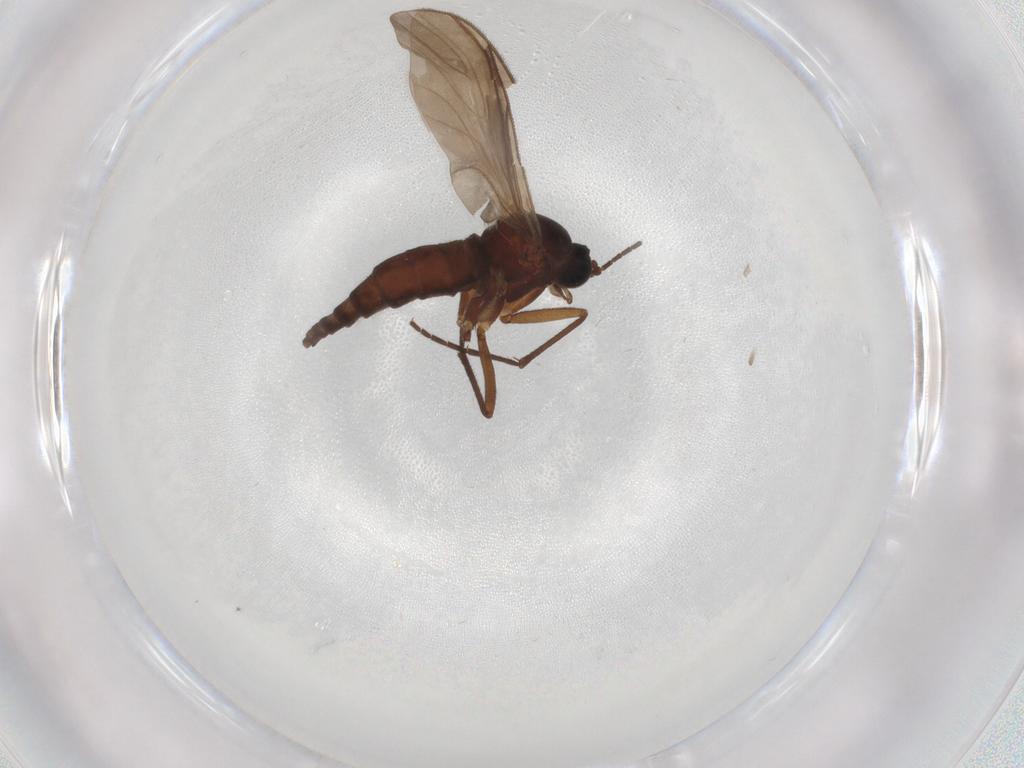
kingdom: Animalia
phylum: Arthropoda
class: Insecta
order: Diptera
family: Sciaridae
